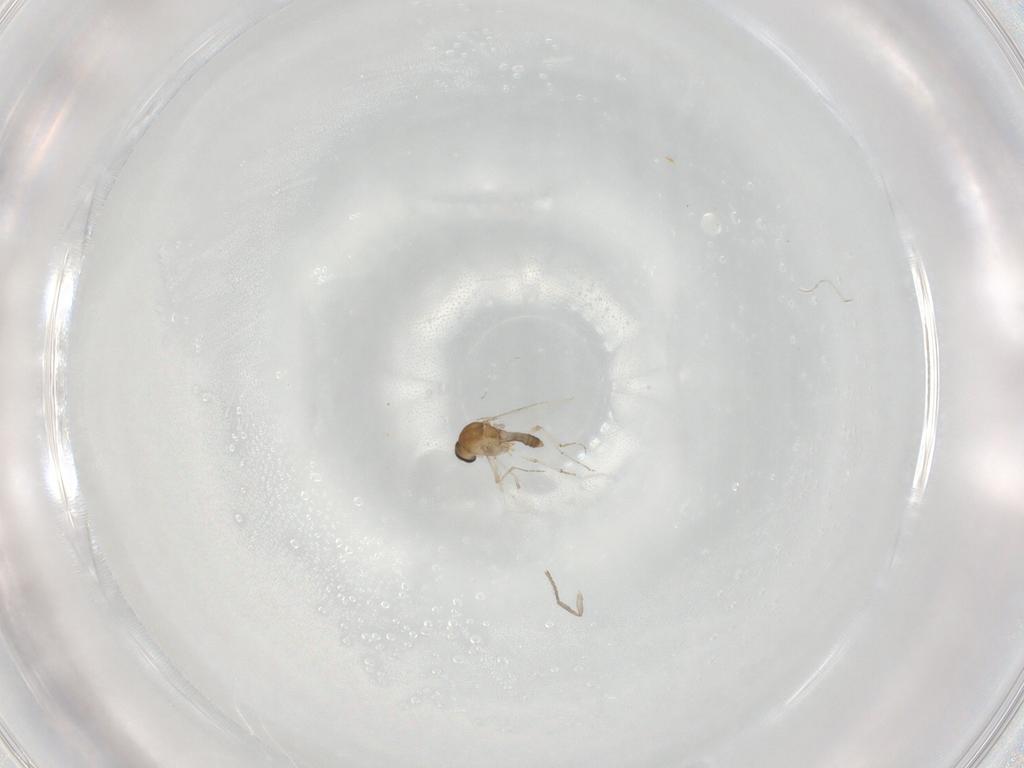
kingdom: Animalia
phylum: Arthropoda
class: Insecta
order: Diptera
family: Ceratopogonidae
